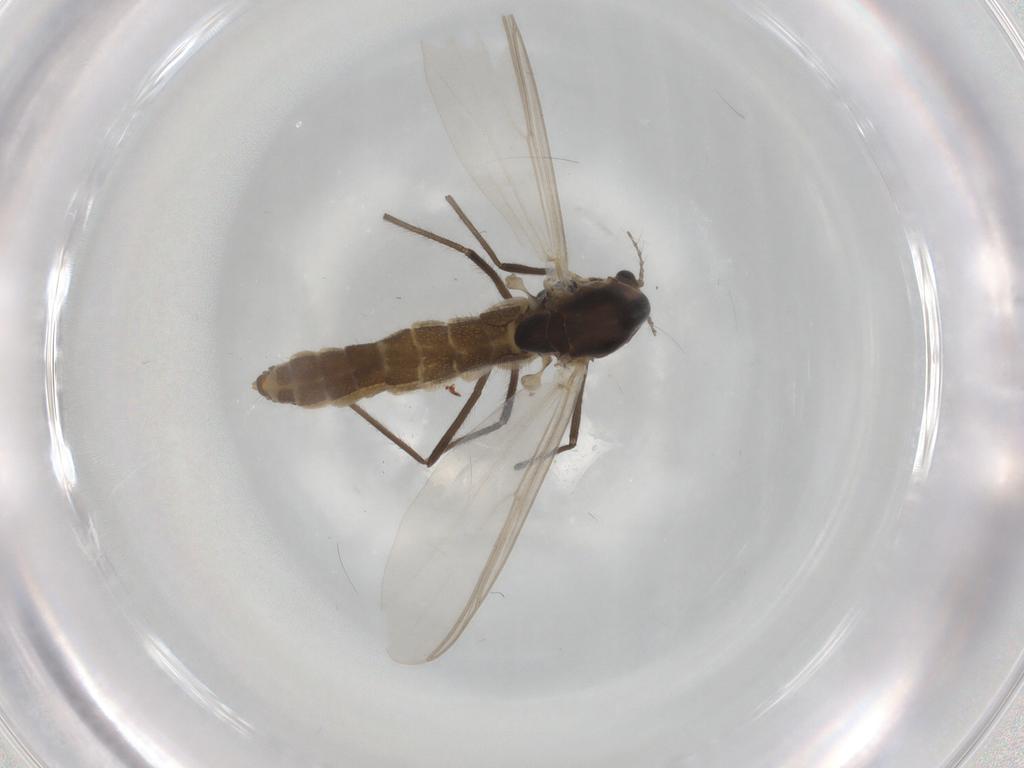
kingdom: Animalia
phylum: Arthropoda
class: Insecta
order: Diptera
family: Chironomidae
